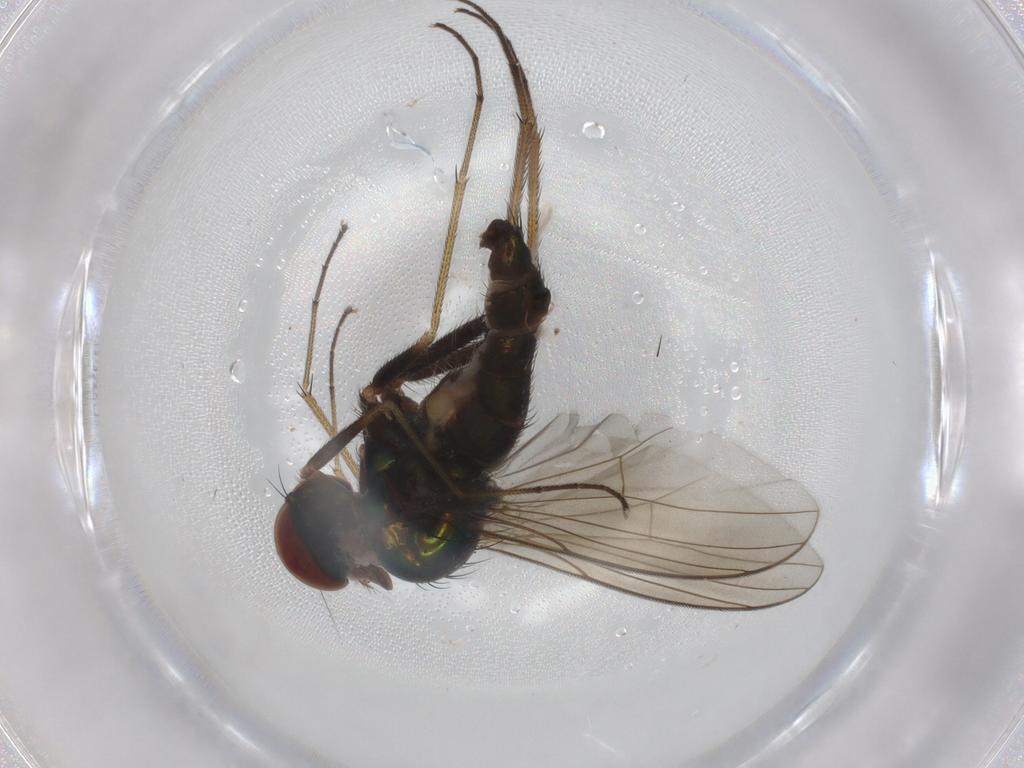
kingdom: Animalia
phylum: Arthropoda
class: Insecta
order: Diptera
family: Dolichopodidae
